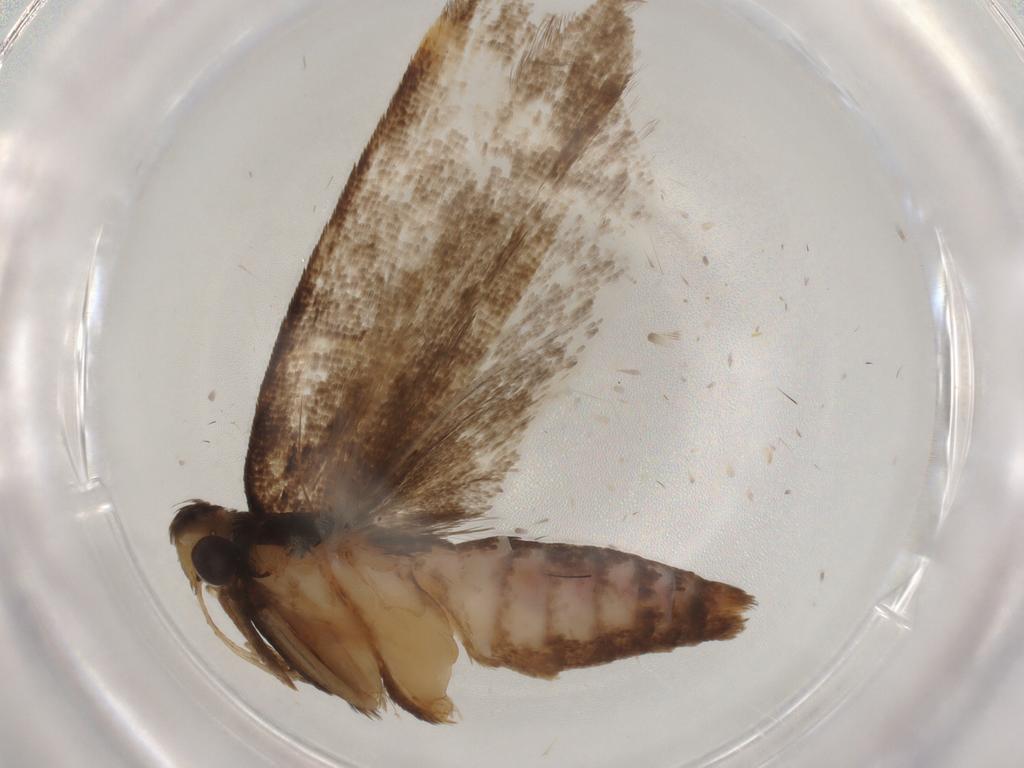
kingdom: Animalia
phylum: Arthropoda
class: Insecta
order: Lepidoptera
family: Gelechiidae
